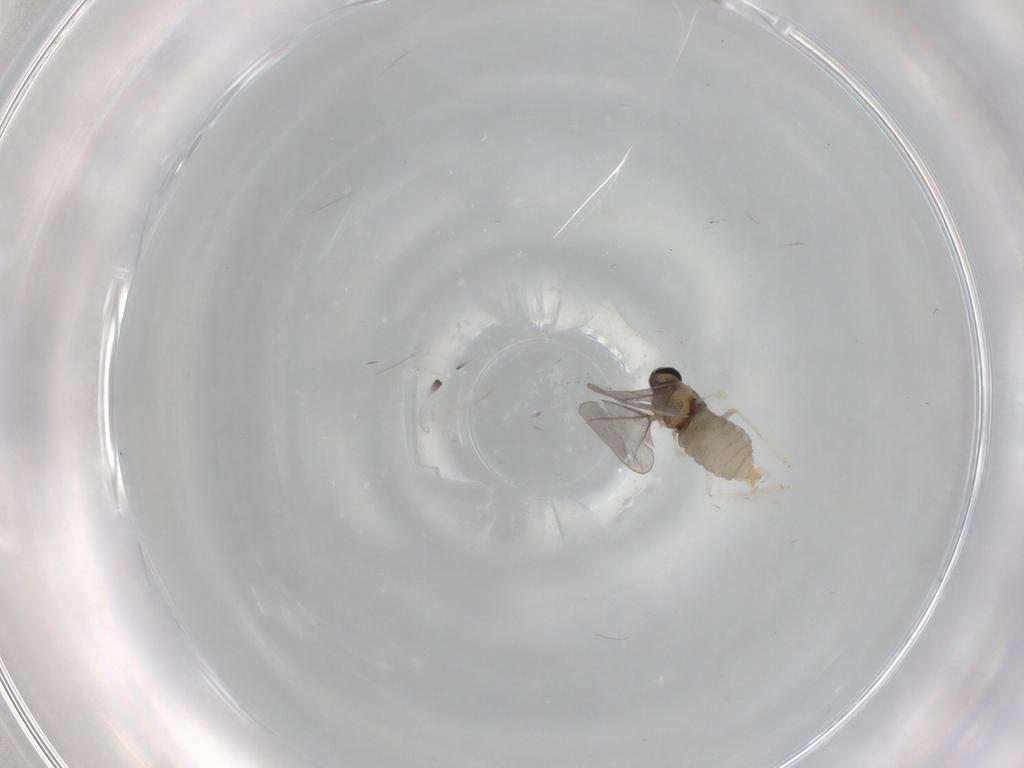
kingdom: Animalia
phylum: Arthropoda
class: Insecta
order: Diptera
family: Cecidomyiidae
